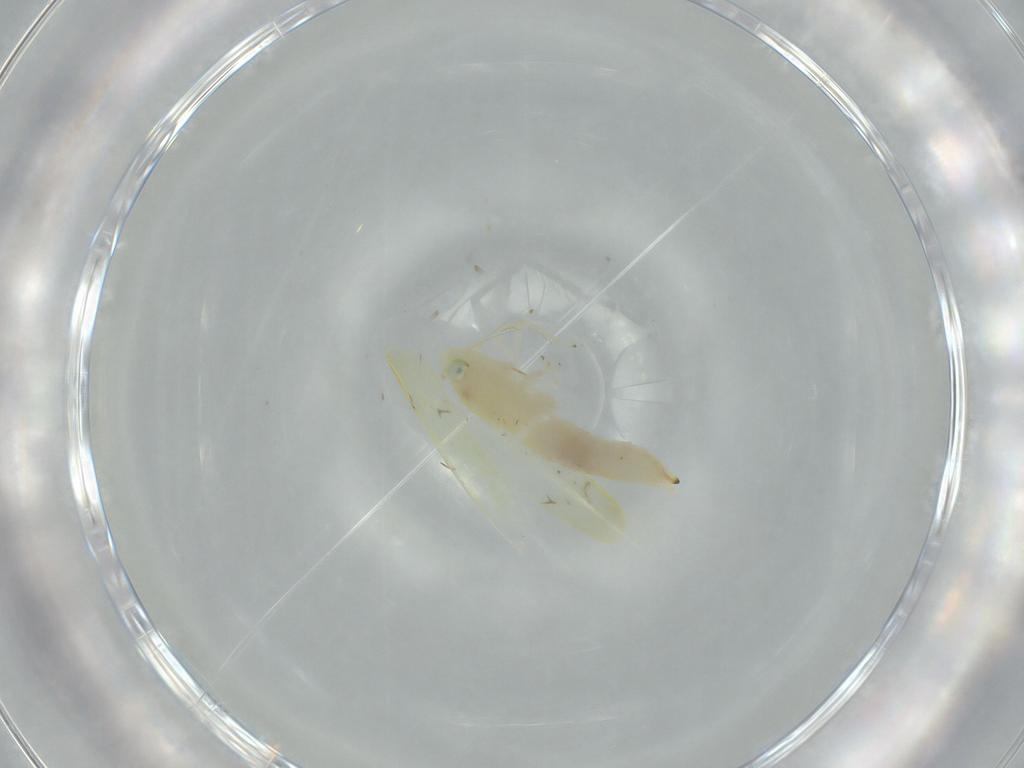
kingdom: Animalia
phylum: Arthropoda
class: Insecta
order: Hemiptera
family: Cicadellidae
